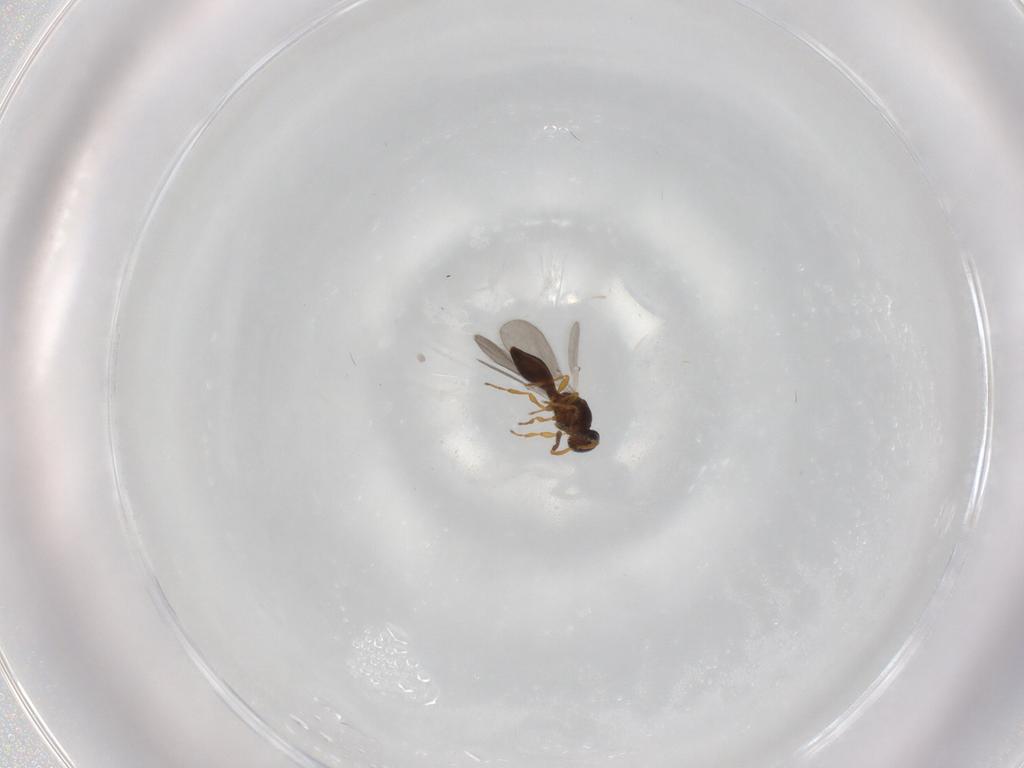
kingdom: Animalia
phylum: Arthropoda
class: Insecta
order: Hymenoptera
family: Platygastridae
